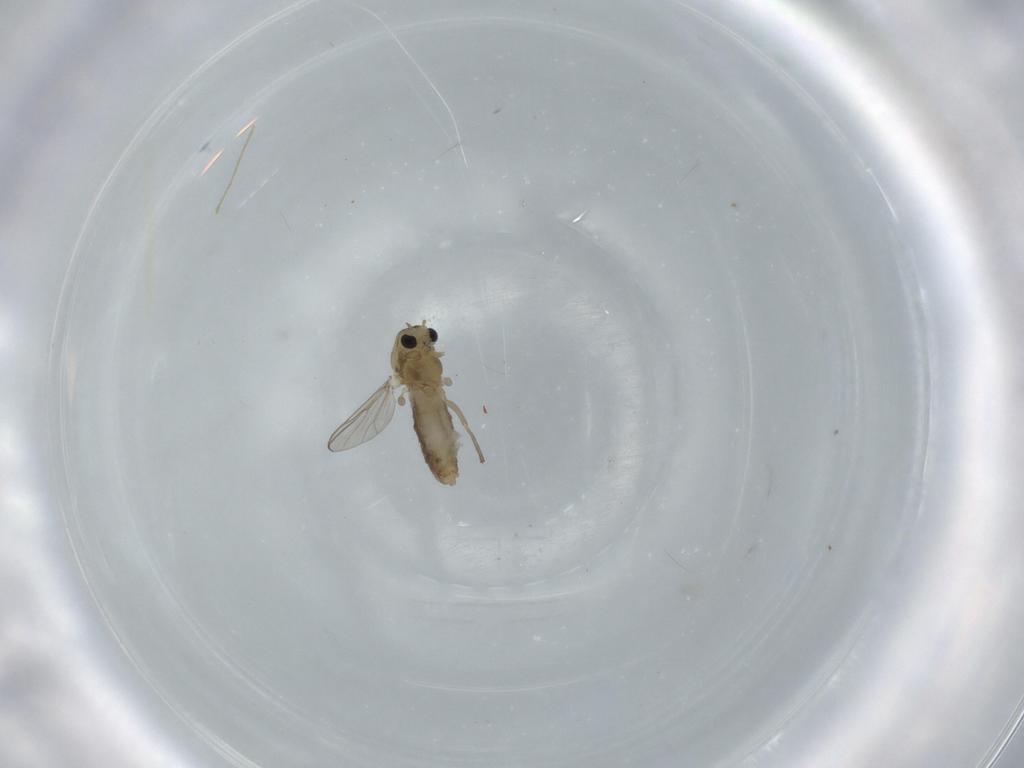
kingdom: Animalia
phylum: Arthropoda
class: Insecta
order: Diptera
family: Chironomidae
